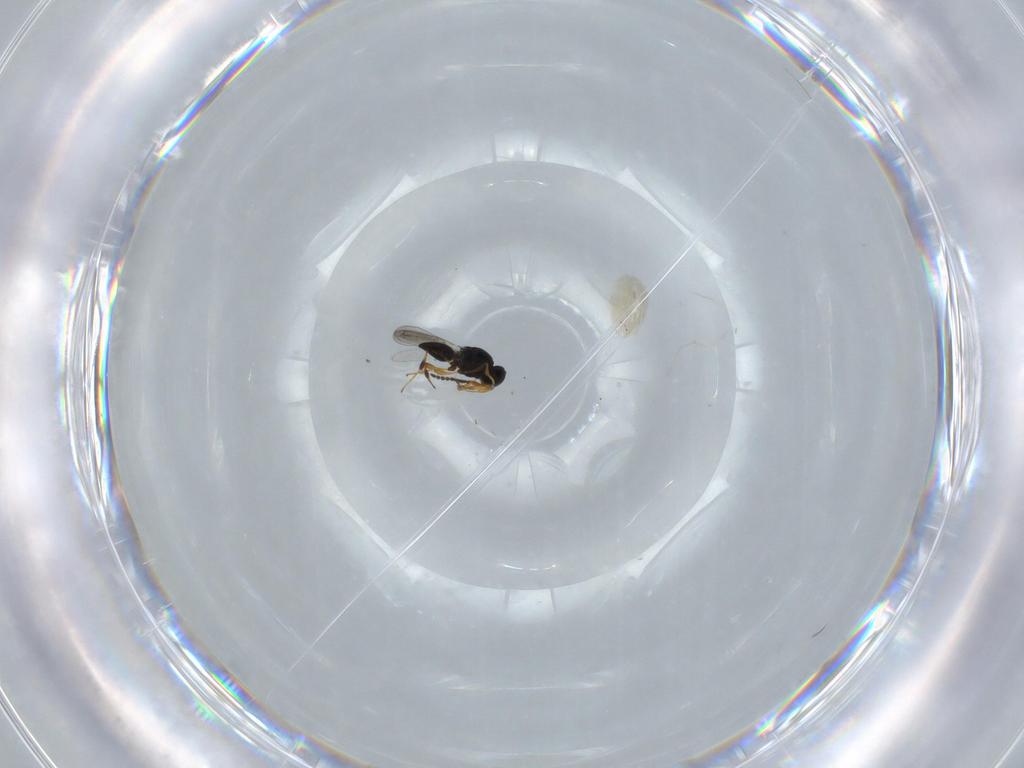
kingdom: Animalia
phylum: Arthropoda
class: Insecta
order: Hymenoptera
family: Platygastridae
